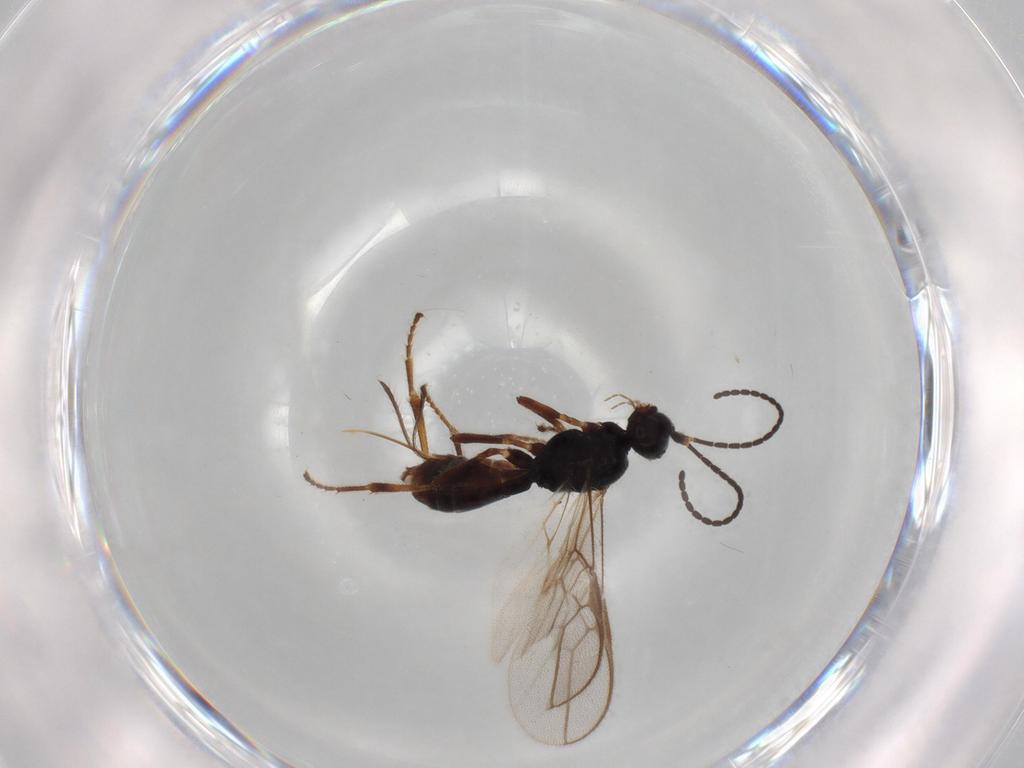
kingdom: Animalia
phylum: Arthropoda
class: Insecta
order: Hymenoptera
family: Braconidae
